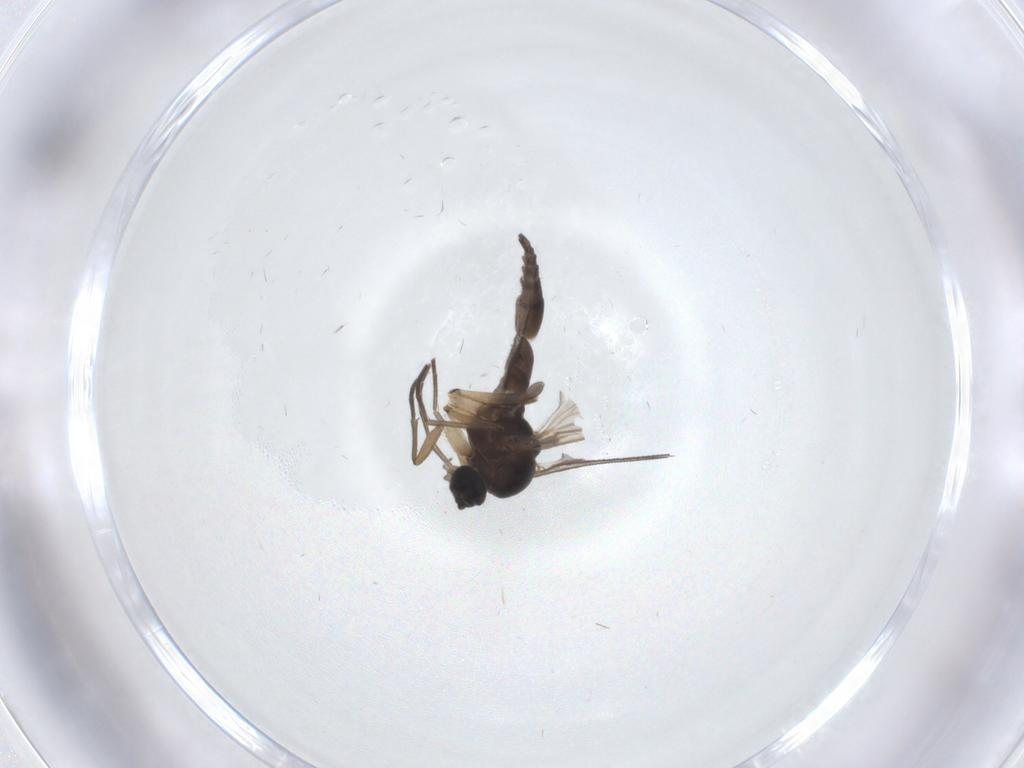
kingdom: Animalia
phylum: Arthropoda
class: Insecta
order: Diptera
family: Sciaridae
